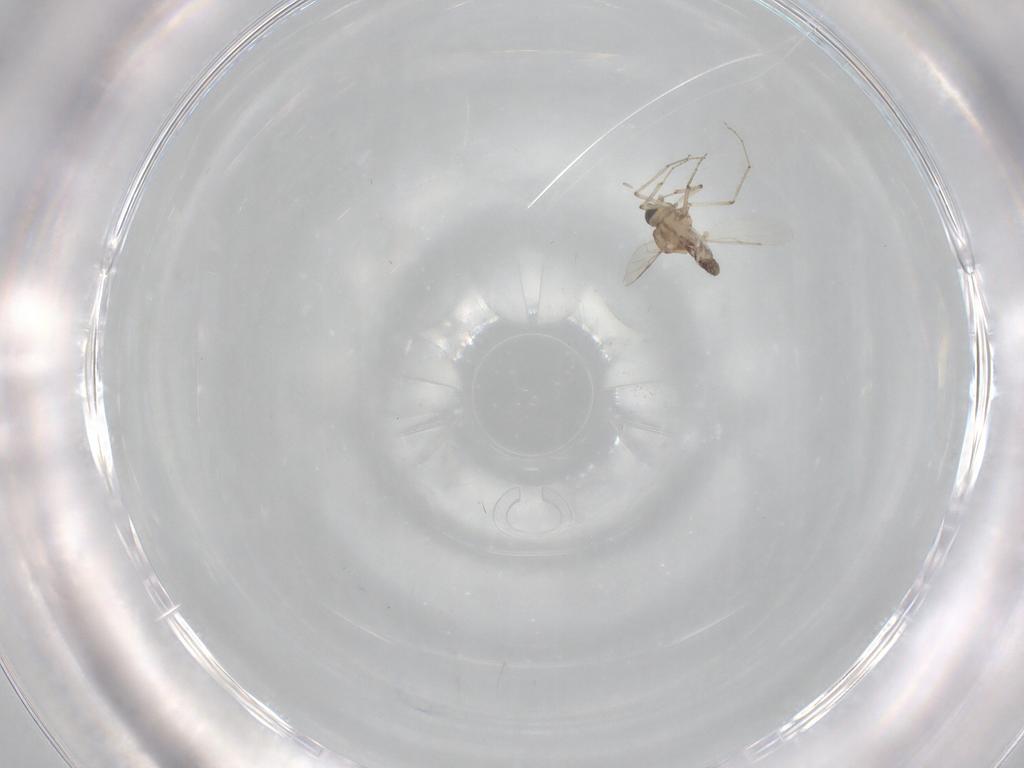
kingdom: Animalia
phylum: Arthropoda
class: Insecta
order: Diptera
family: Ceratopogonidae
